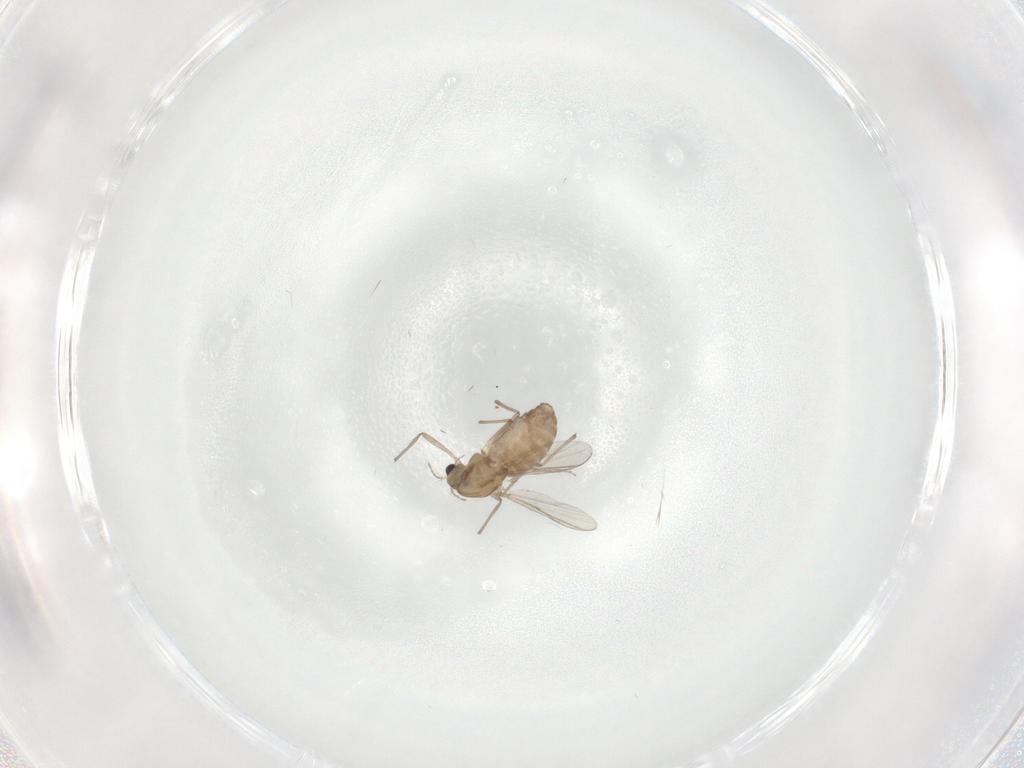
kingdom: Animalia
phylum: Arthropoda
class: Insecta
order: Diptera
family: Chironomidae
